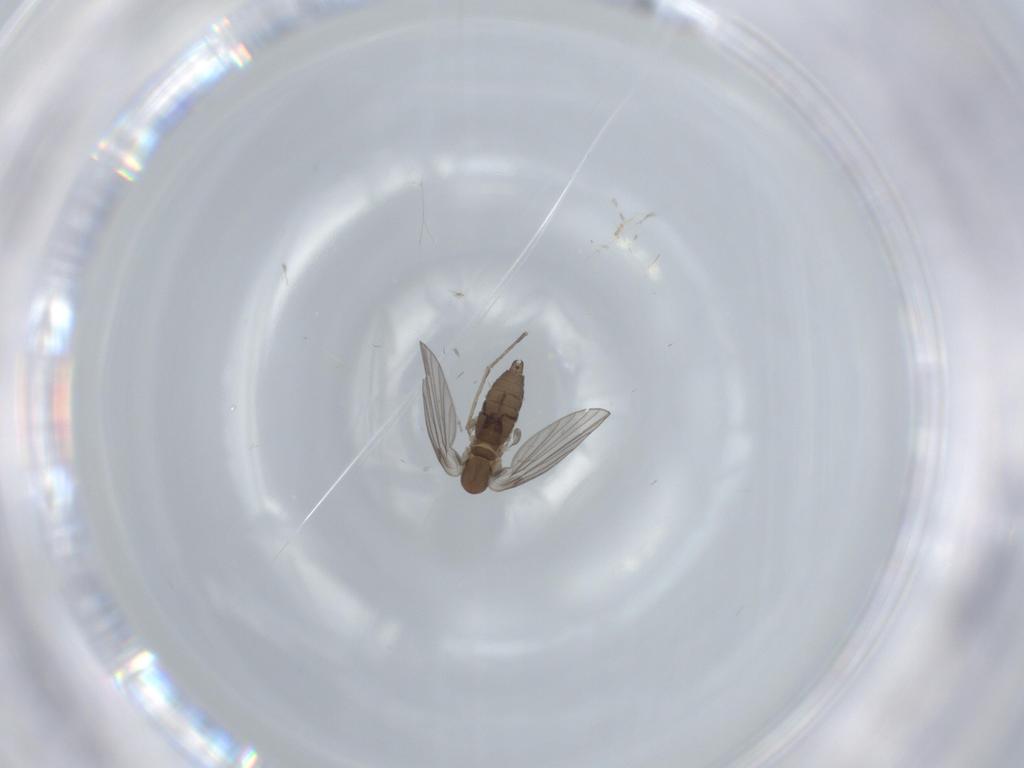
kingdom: Animalia
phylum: Arthropoda
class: Insecta
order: Diptera
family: Psychodidae
